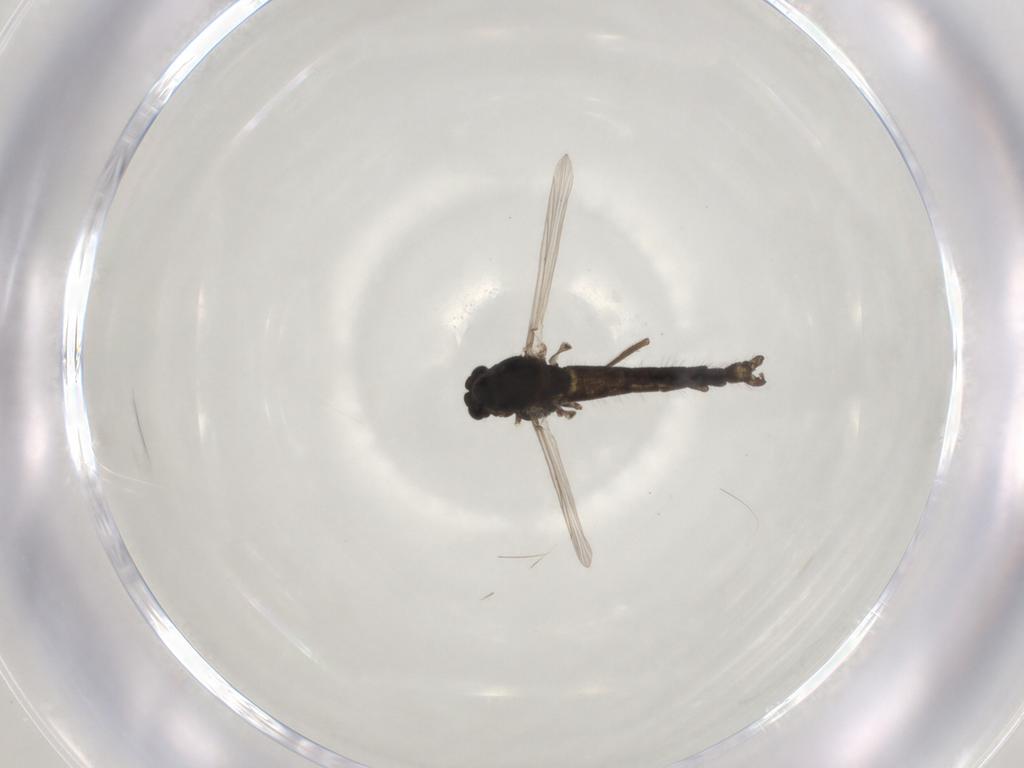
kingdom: Animalia
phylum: Arthropoda
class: Insecta
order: Diptera
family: Chironomidae
